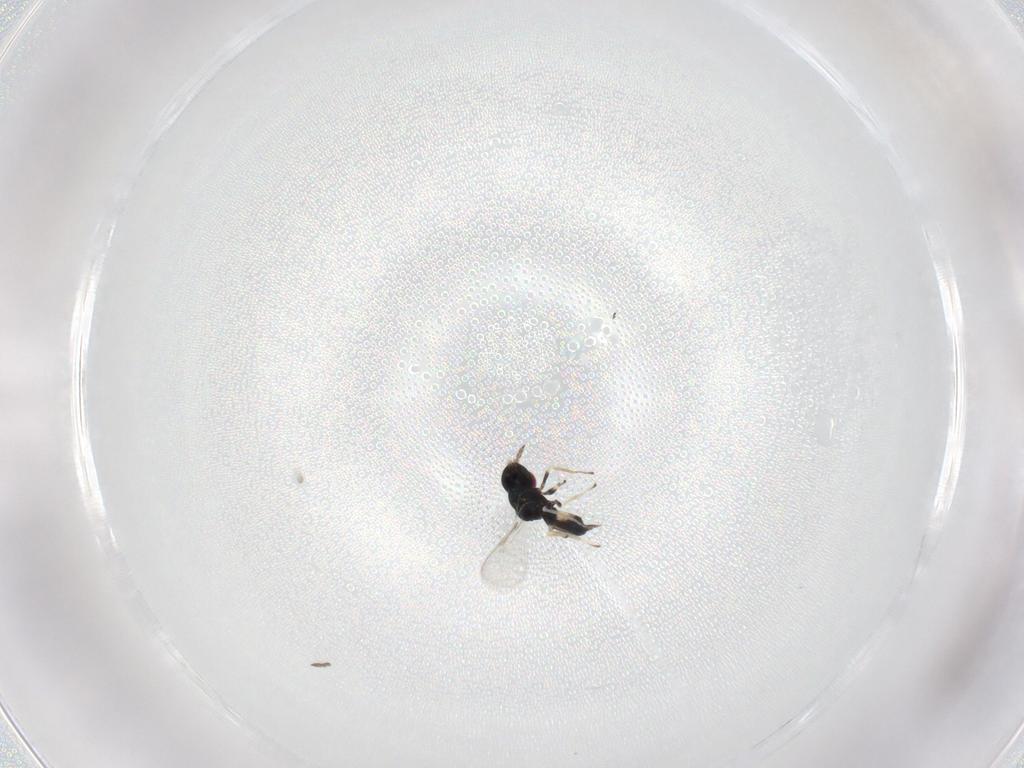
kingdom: Animalia
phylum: Arthropoda
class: Insecta
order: Hymenoptera
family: Eulophidae
